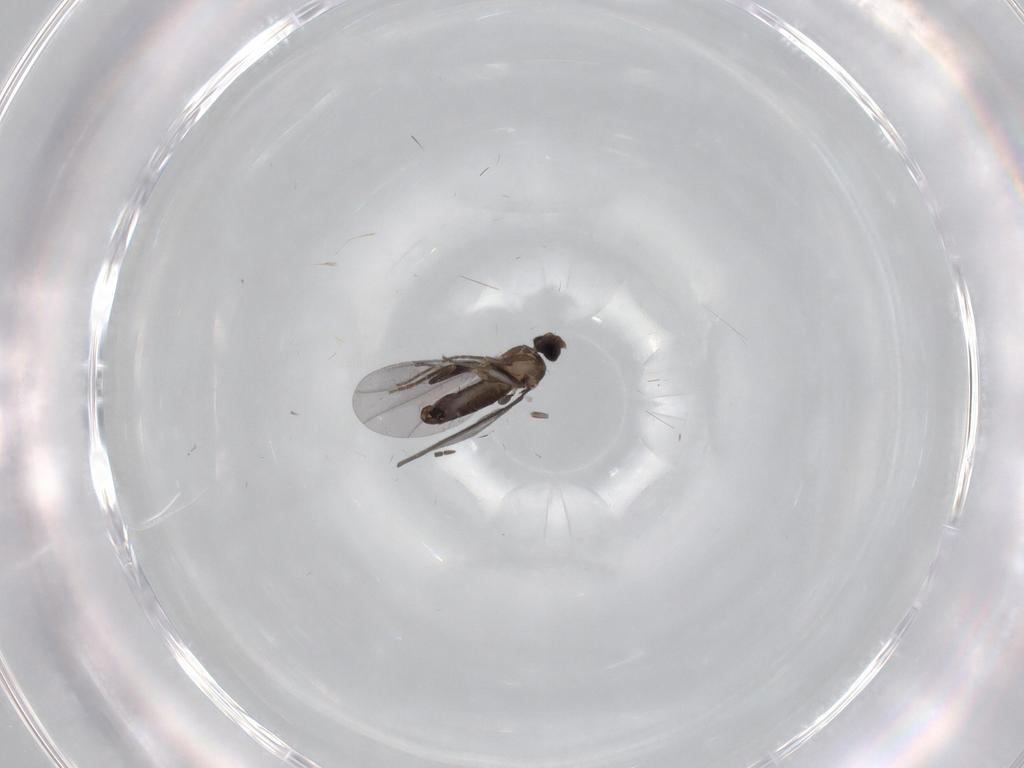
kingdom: Animalia
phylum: Arthropoda
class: Insecta
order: Diptera
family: Phoridae
